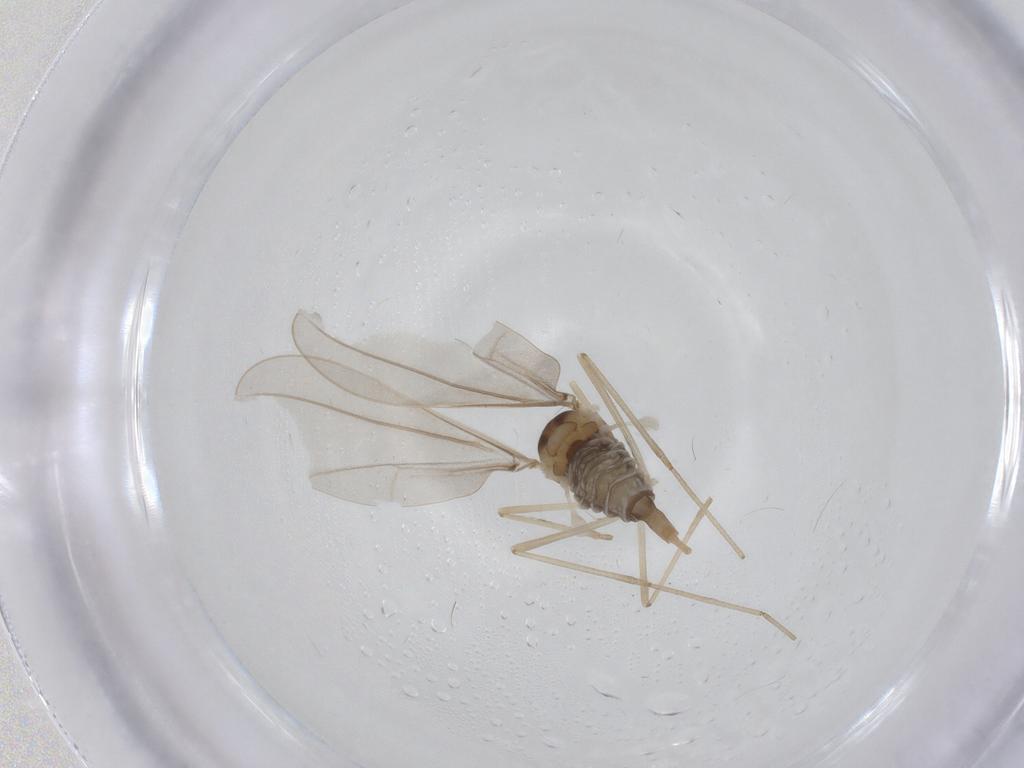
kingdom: Animalia
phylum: Arthropoda
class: Insecta
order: Diptera
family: Cecidomyiidae
